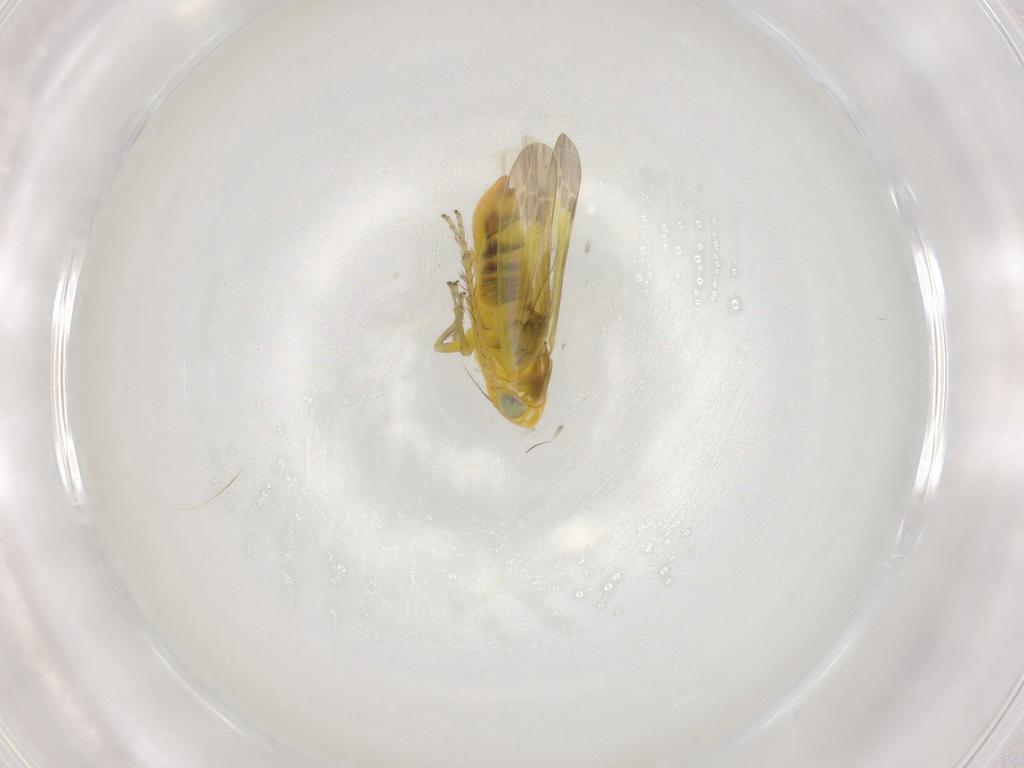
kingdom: Animalia
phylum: Arthropoda
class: Insecta
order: Hemiptera
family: Cicadellidae
